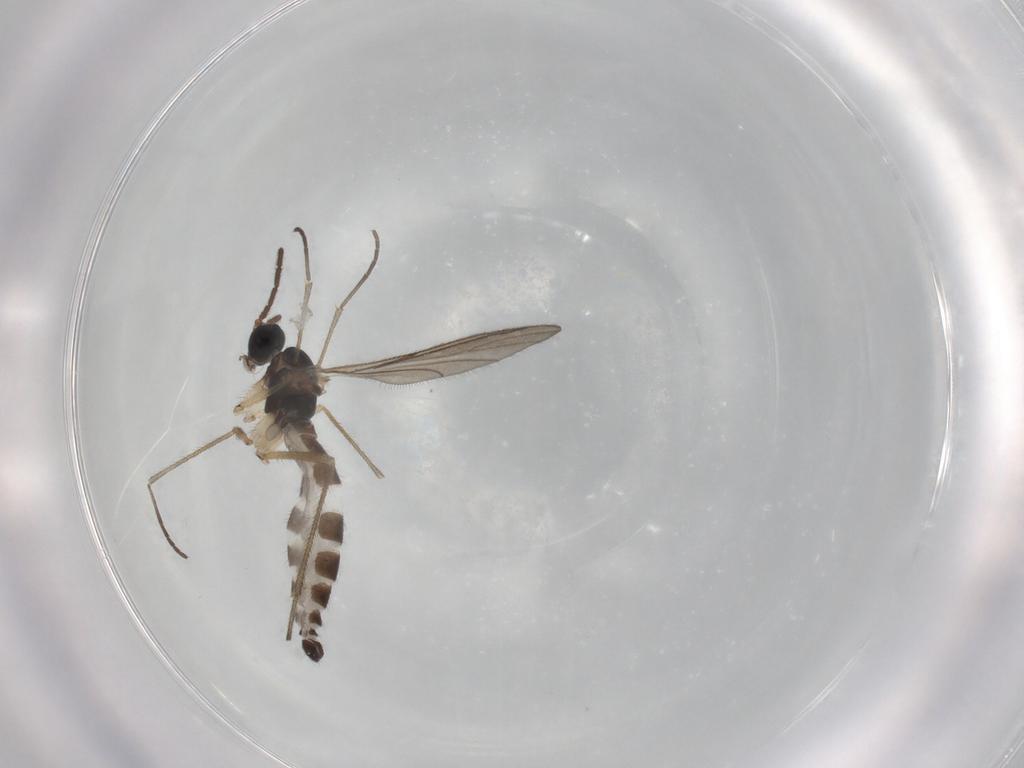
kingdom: Animalia
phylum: Arthropoda
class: Insecta
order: Diptera
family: Sciaridae
